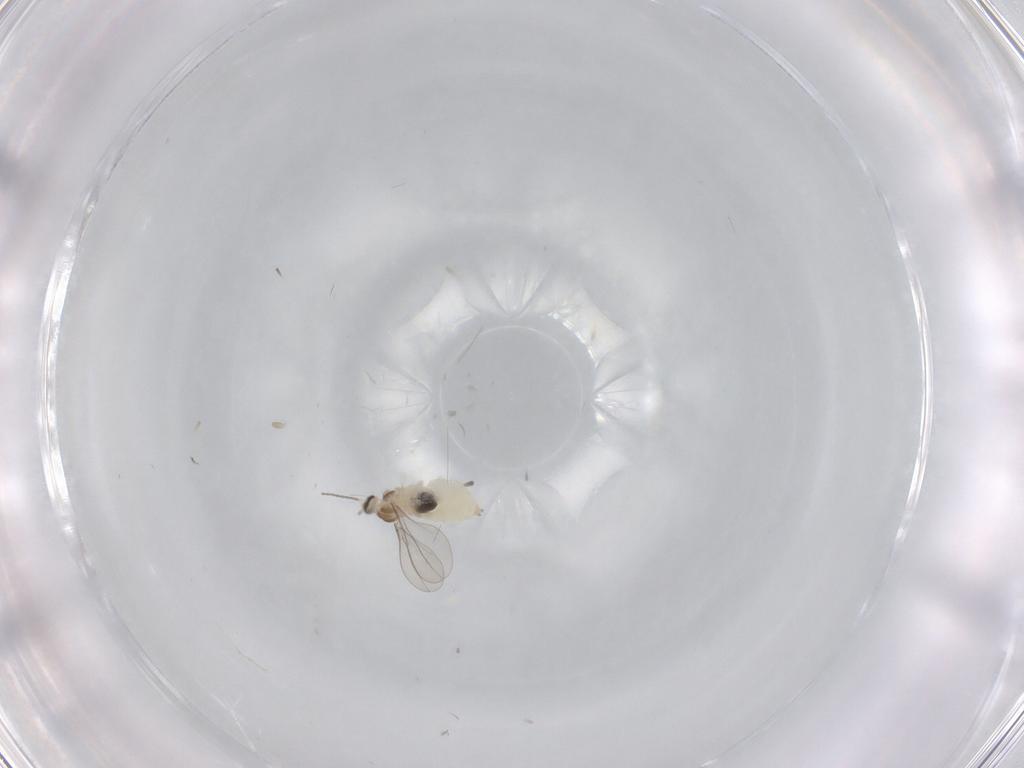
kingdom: Animalia
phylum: Arthropoda
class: Insecta
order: Diptera
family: Cecidomyiidae
